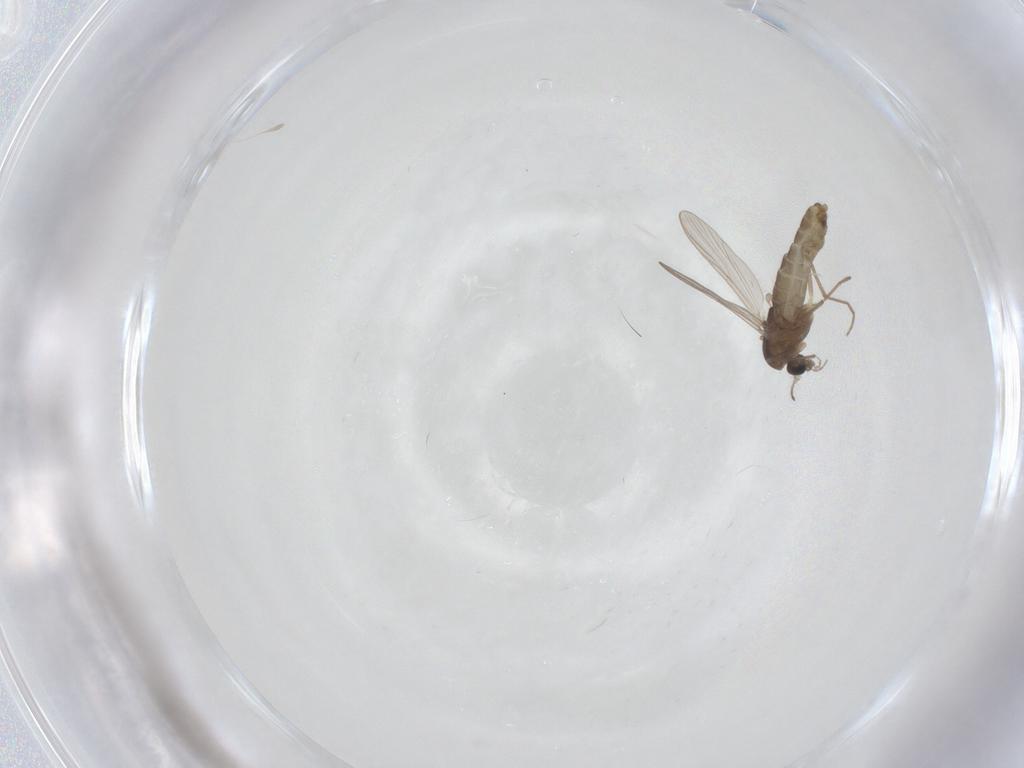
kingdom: Animalia
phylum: Arthropoda
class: Insecta
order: Diptera
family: Chironomidae
